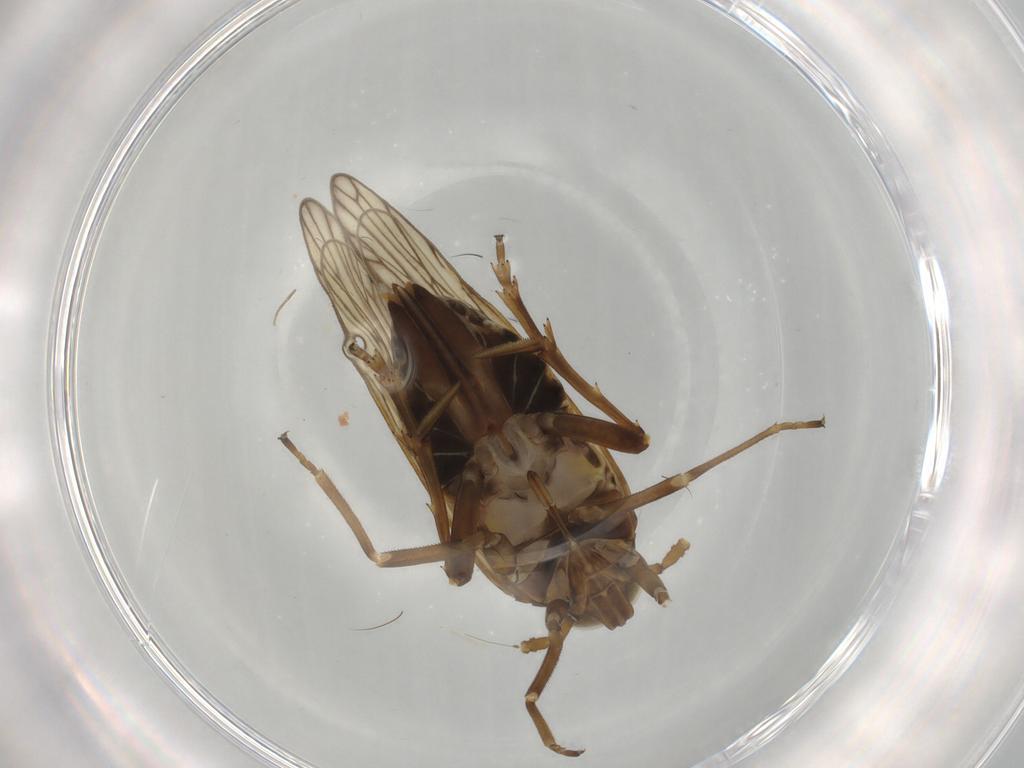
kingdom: Animalia
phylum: Arthropoda
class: Insecta
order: Hemiptera
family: Delphacidae
